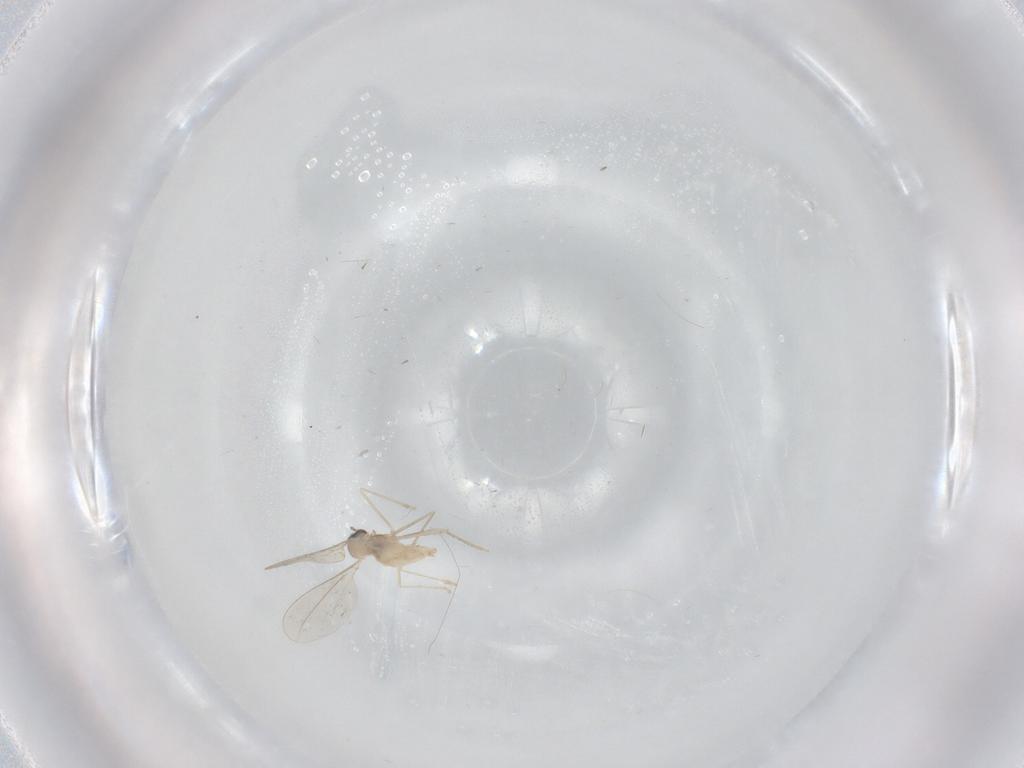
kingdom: Animalia
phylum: Arthropoda
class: Insecta
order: Diptera
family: Cecidomyiidae
